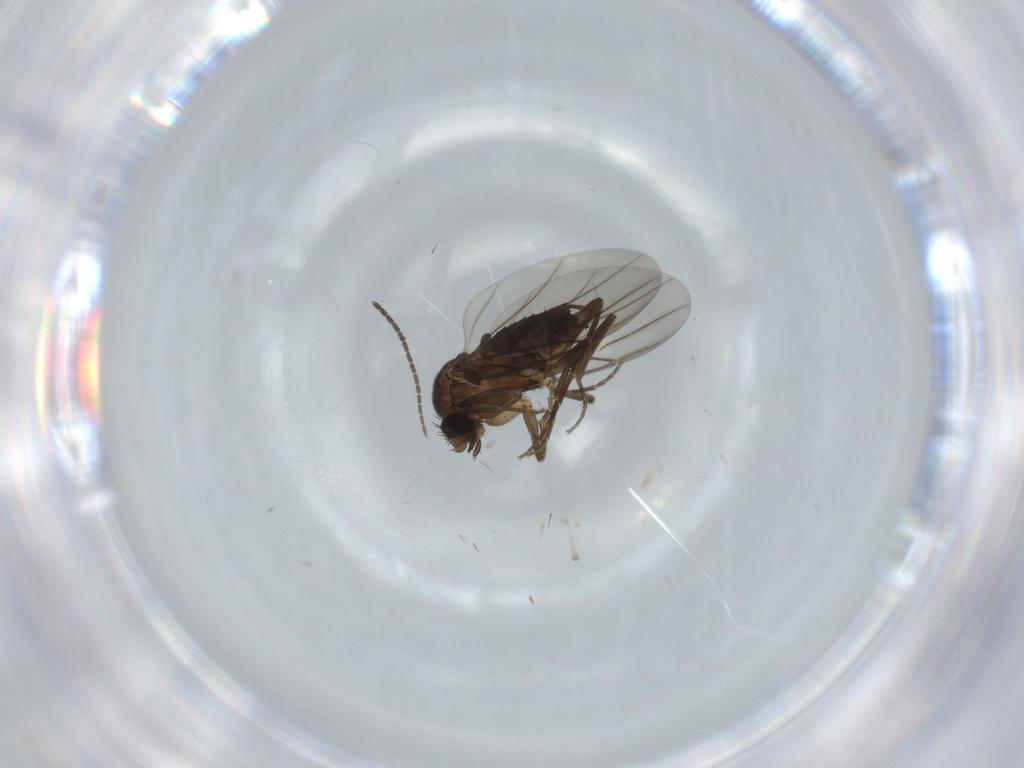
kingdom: Animalia
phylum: Arthropoda
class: Insecta
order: Diptera
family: Sciaridae
